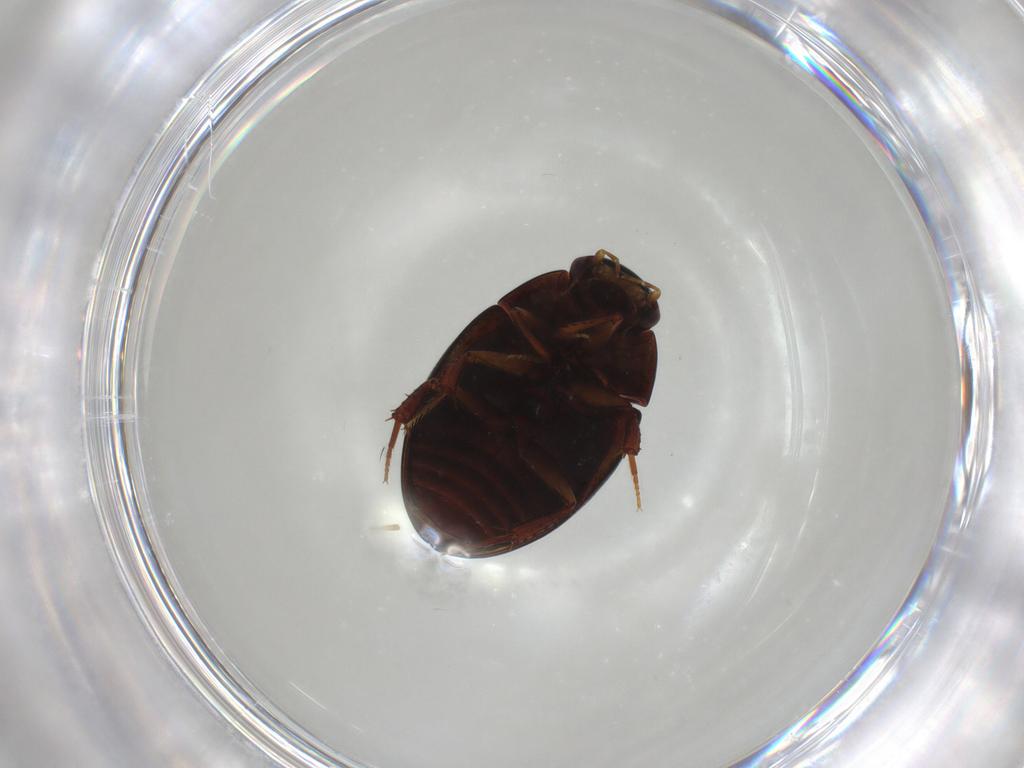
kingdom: Animalia
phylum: Arthropoda
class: Insecta
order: Coleoptera
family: Hydrophilidae
